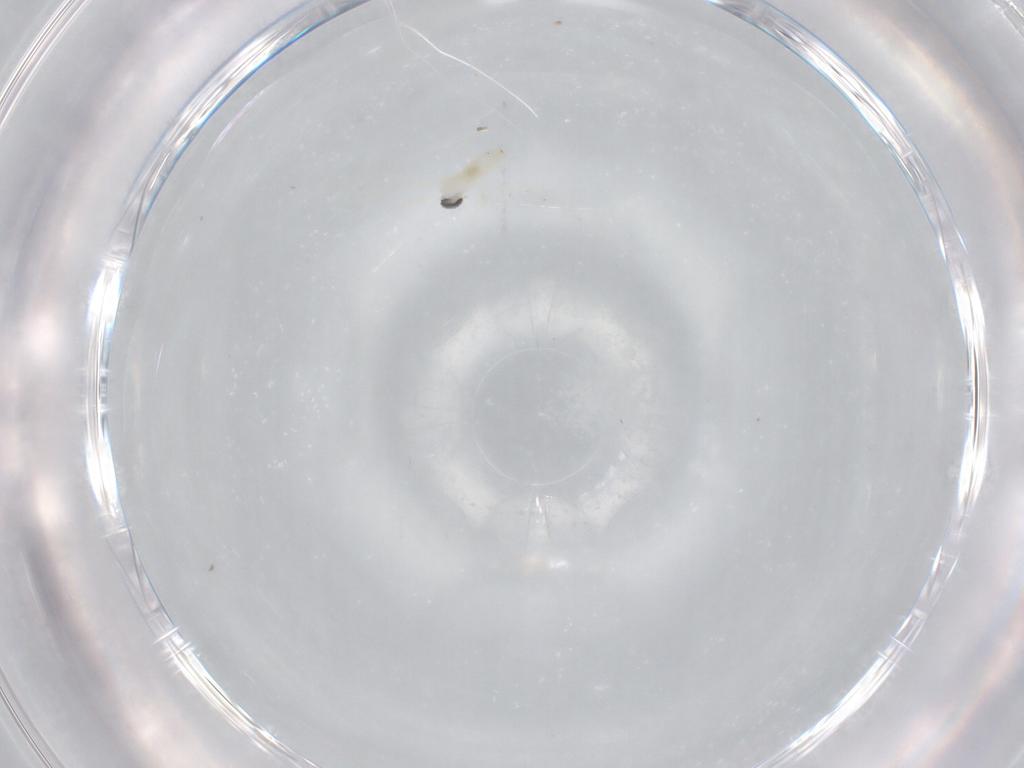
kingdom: Animalia
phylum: Arthropoda
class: Insecta
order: Diptera
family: Cecidomyiidae
